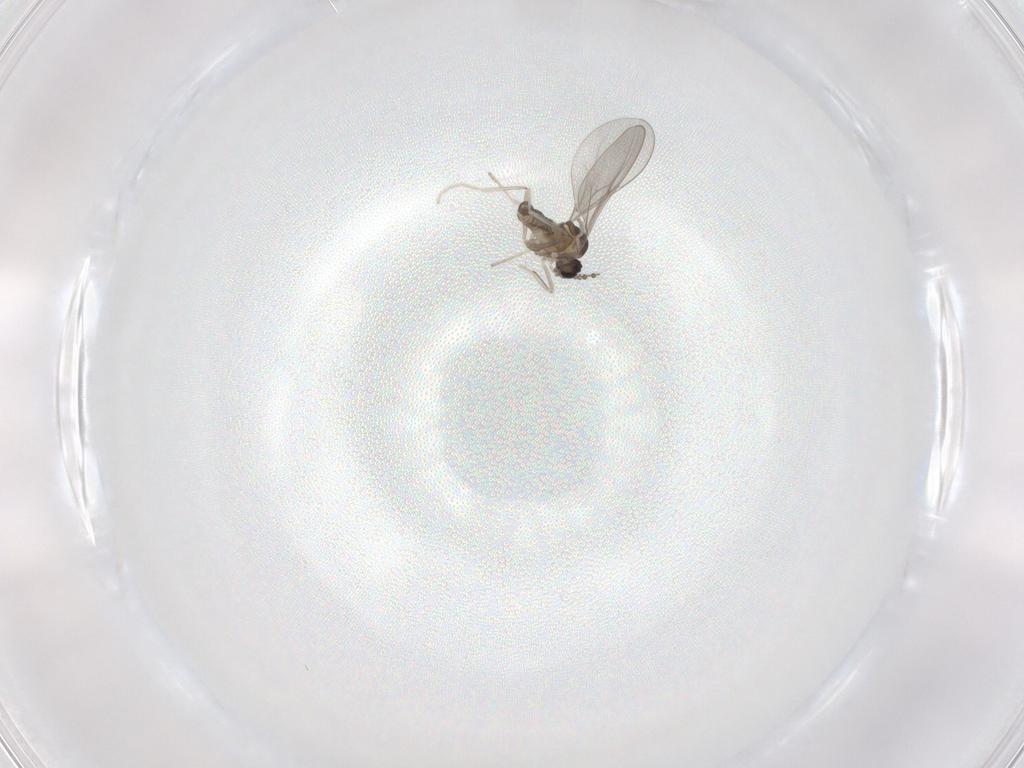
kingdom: Animalia
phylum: Arthropoda
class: Insecta
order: Diptera
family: Cecidomyiidae
